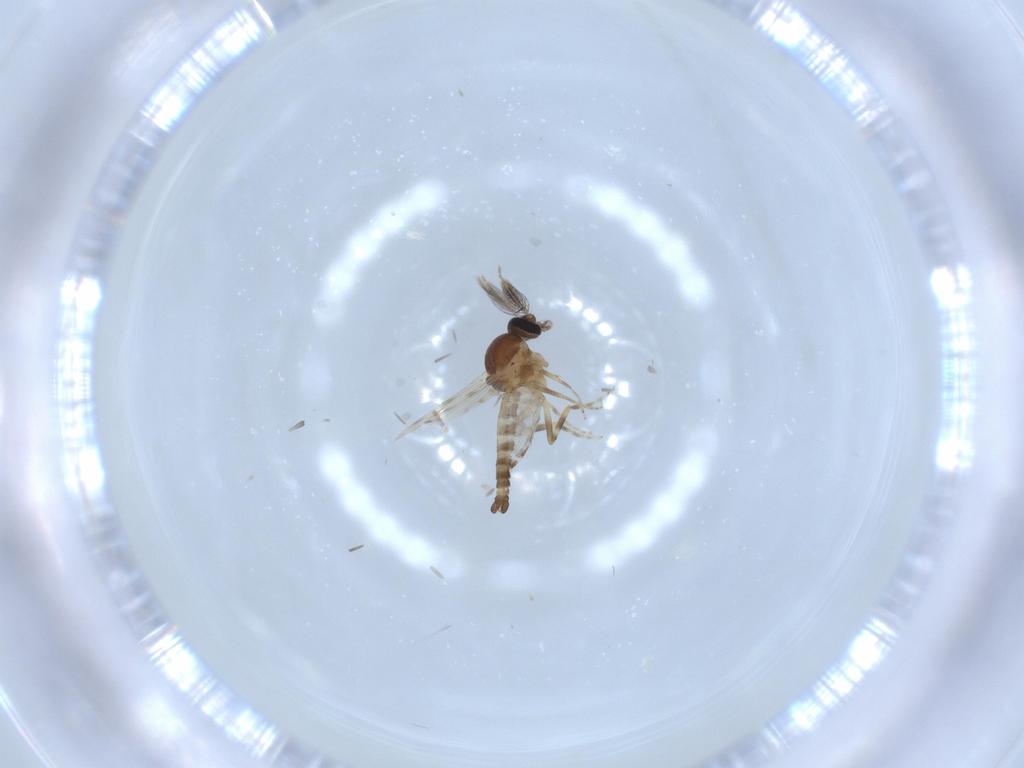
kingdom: Animalia
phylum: Arthropoda
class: Insecta
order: Diptera
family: Ceratopogonidae
